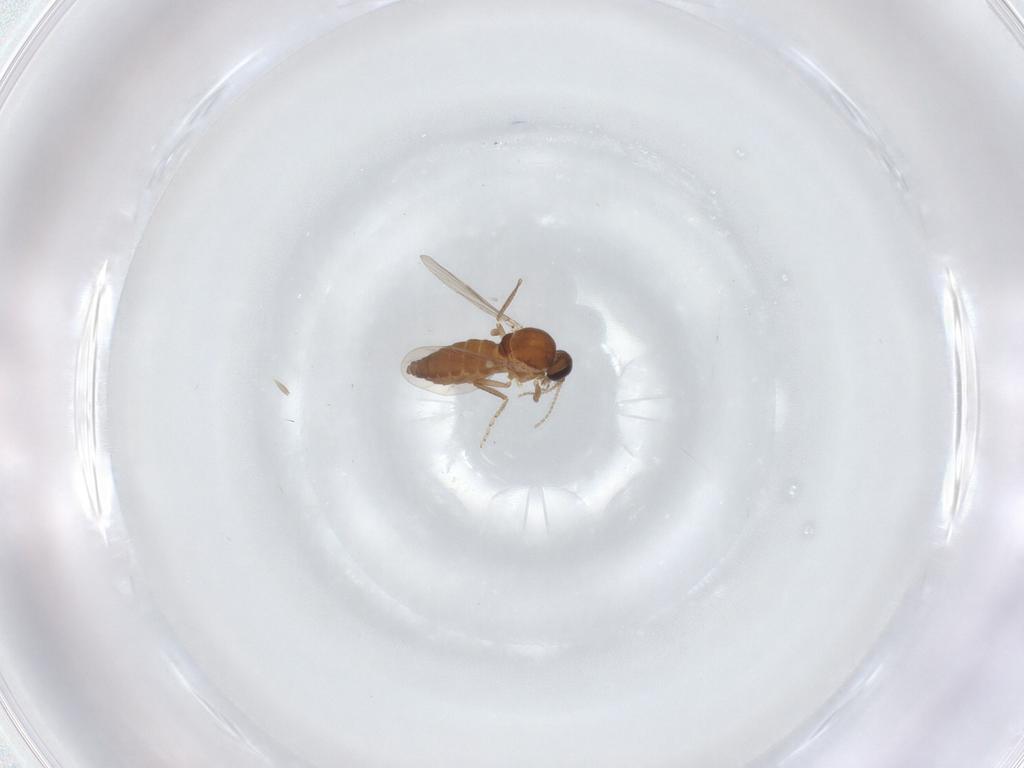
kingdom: Animalia
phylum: Arthropoda
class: Insecta
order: Diptera
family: Ceratopogonidae
